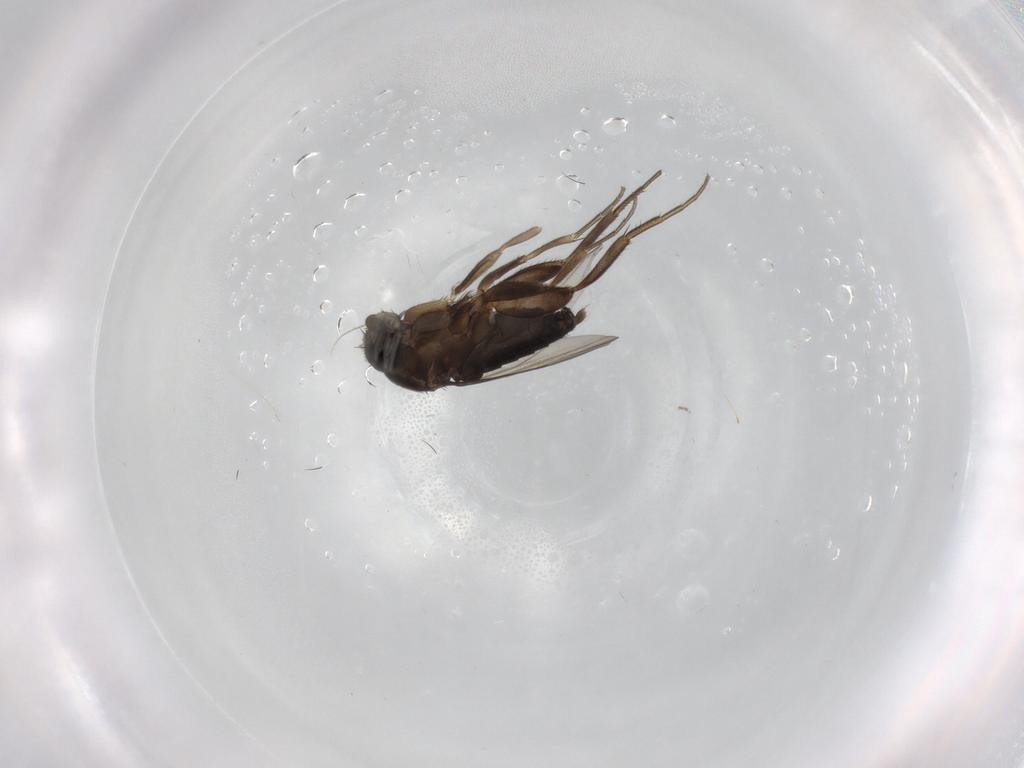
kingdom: Animalia
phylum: Arthropoda
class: Insecta
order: Diptera
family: Phoridae
